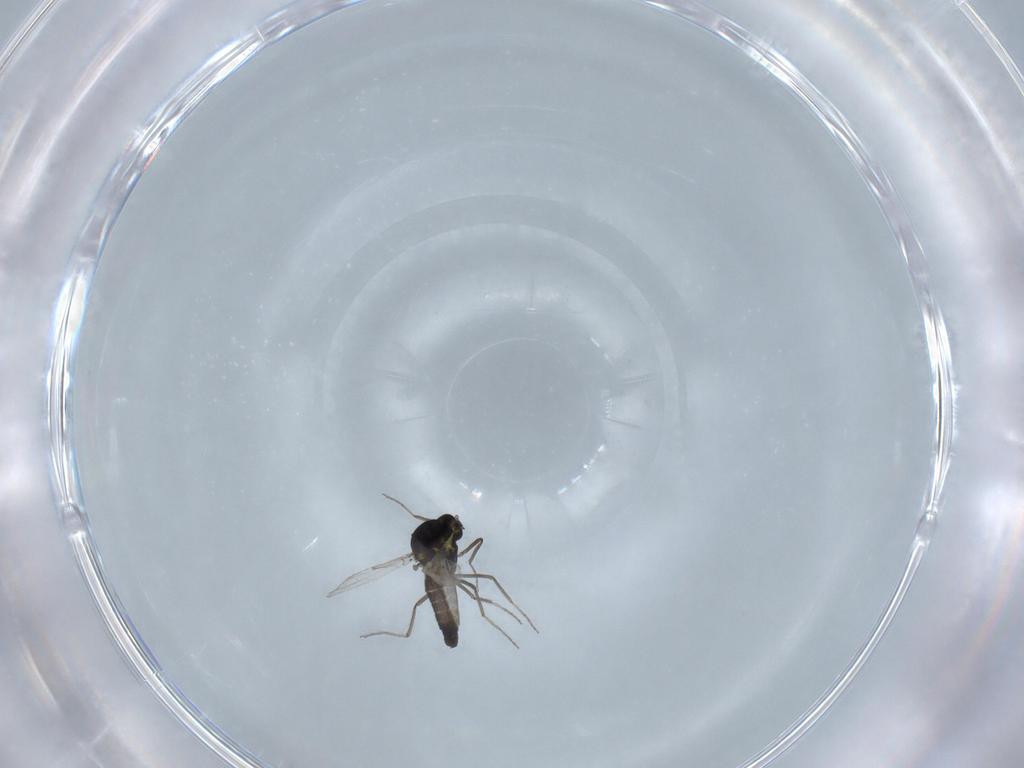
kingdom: Animalia
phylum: Arthropoda
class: Insecta
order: Diptera
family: Ceratopogonidae
